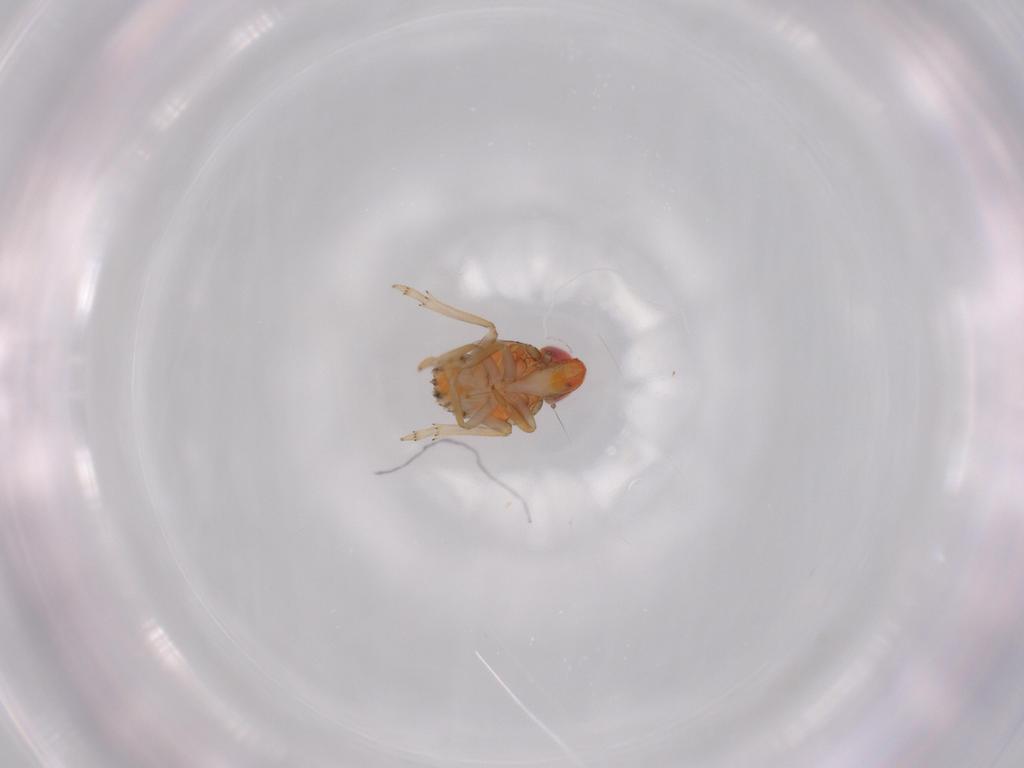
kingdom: Animalia
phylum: Arthropoda
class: Insecta
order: Hemiptera
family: Fulgoroidea_incertae_sedis
